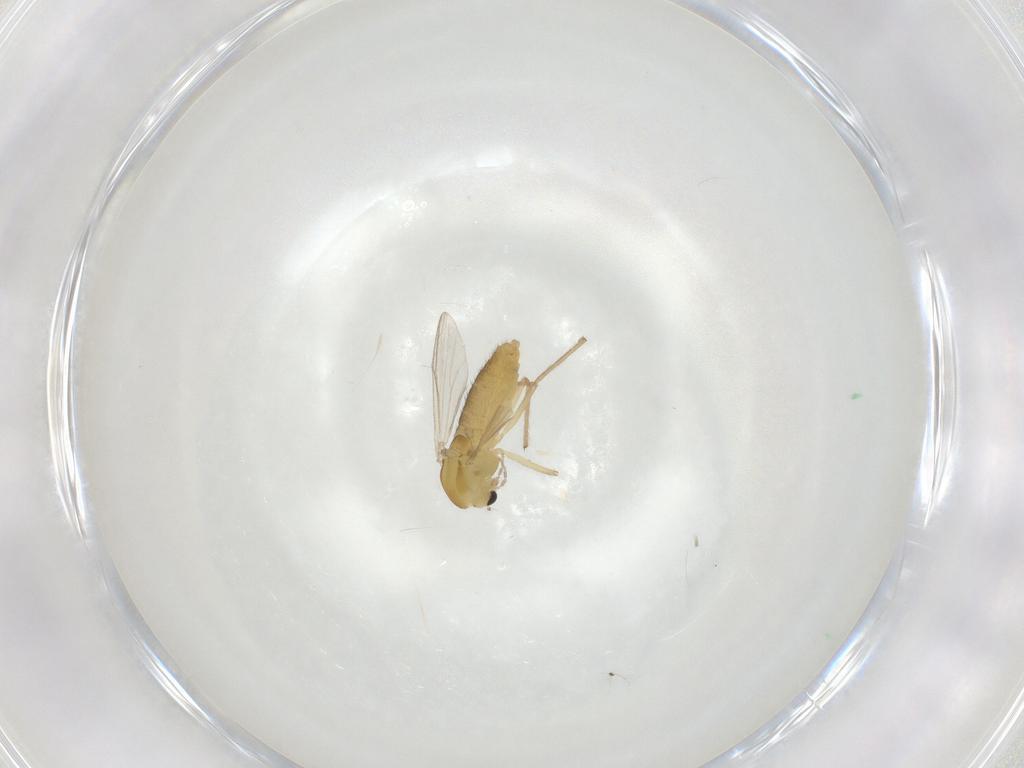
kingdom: Animalia
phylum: Arthropoda
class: Insecta
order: Diptera
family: Chironomidae
